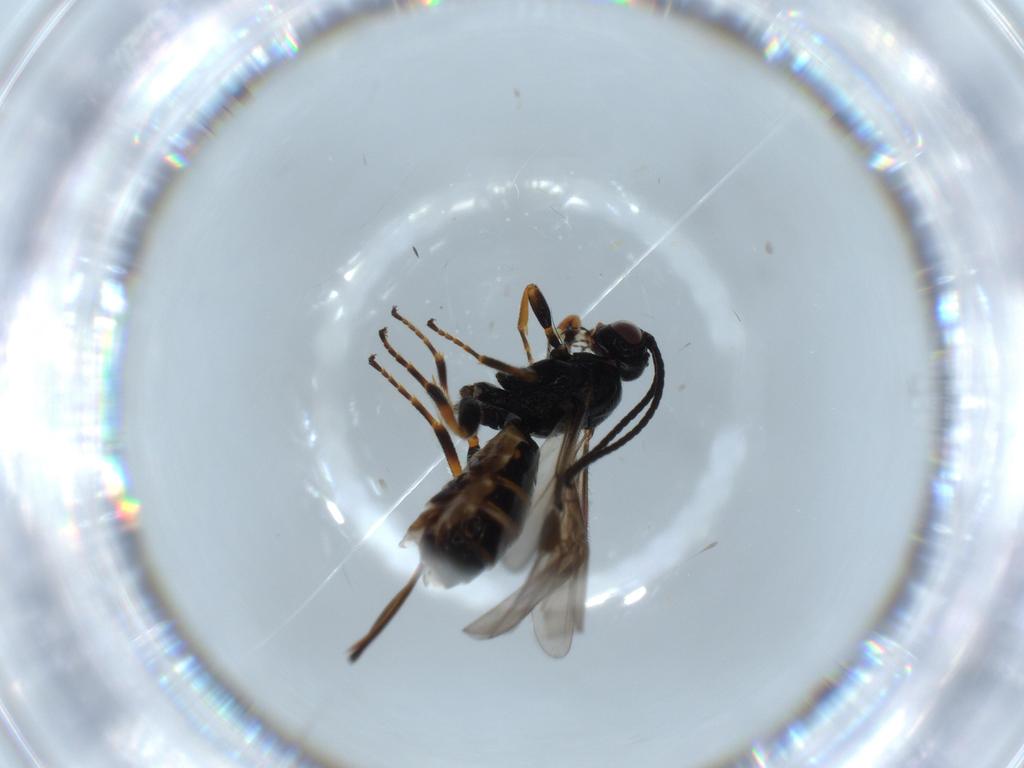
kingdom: Animalia
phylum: Arthropoda
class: Insecta
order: Hymenoptera
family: Braconidae
